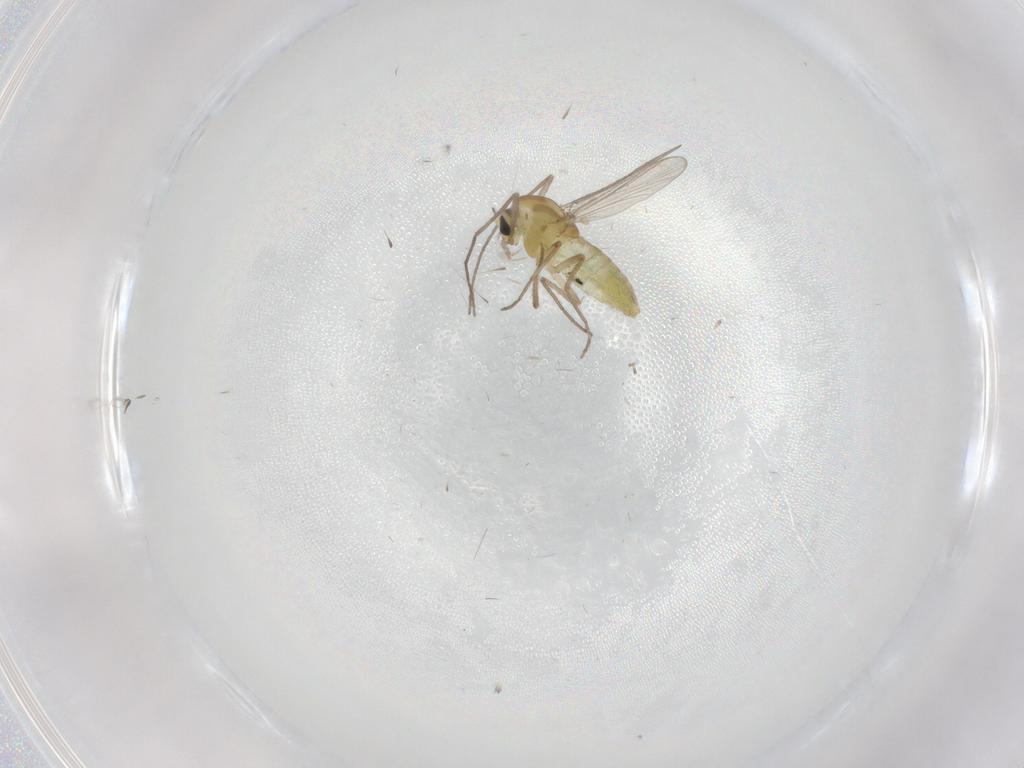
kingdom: Animalia
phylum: Arthropoda
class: Insecta
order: Diptera
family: Chironomidae
